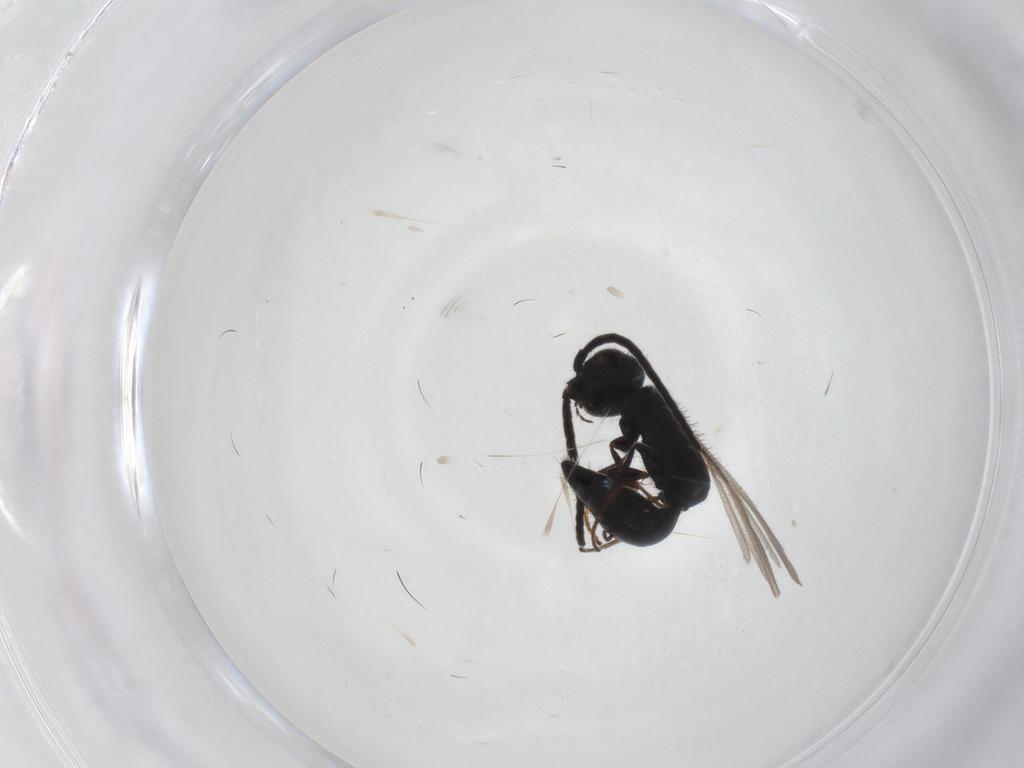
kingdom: Animalia
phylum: Arthropoda
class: Insecta
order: Hymenoptera
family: Bethylidae
